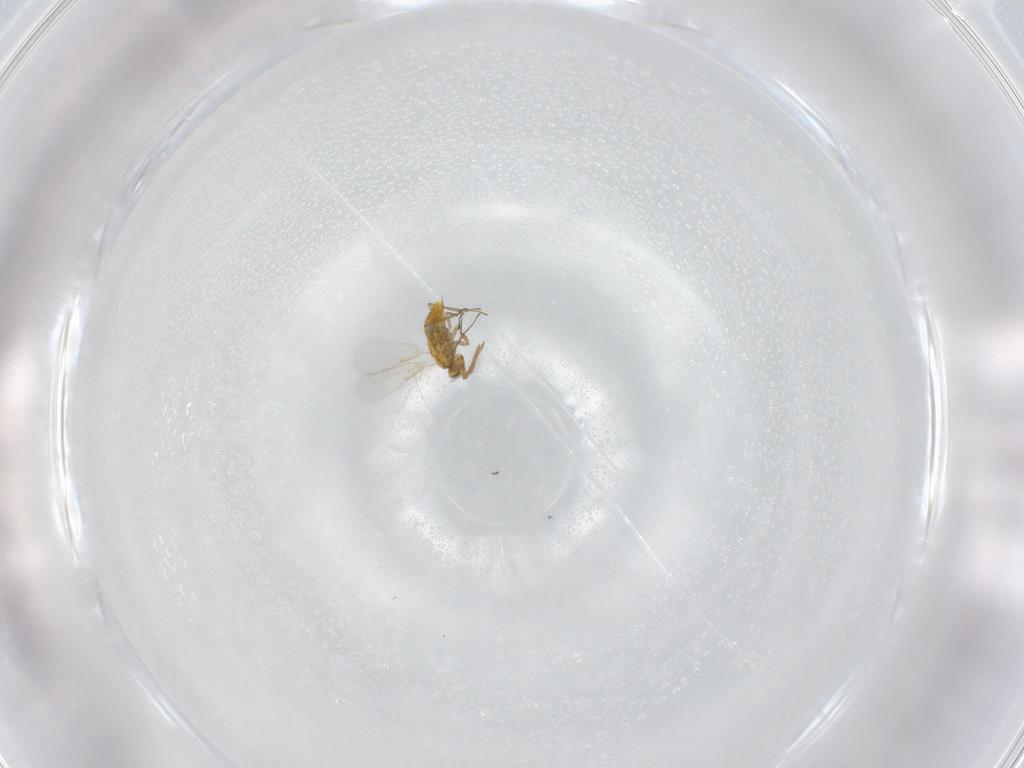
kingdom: Animalia
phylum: Arthropoda
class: Insecta
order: Hymenoptera
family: Aphelinidae
